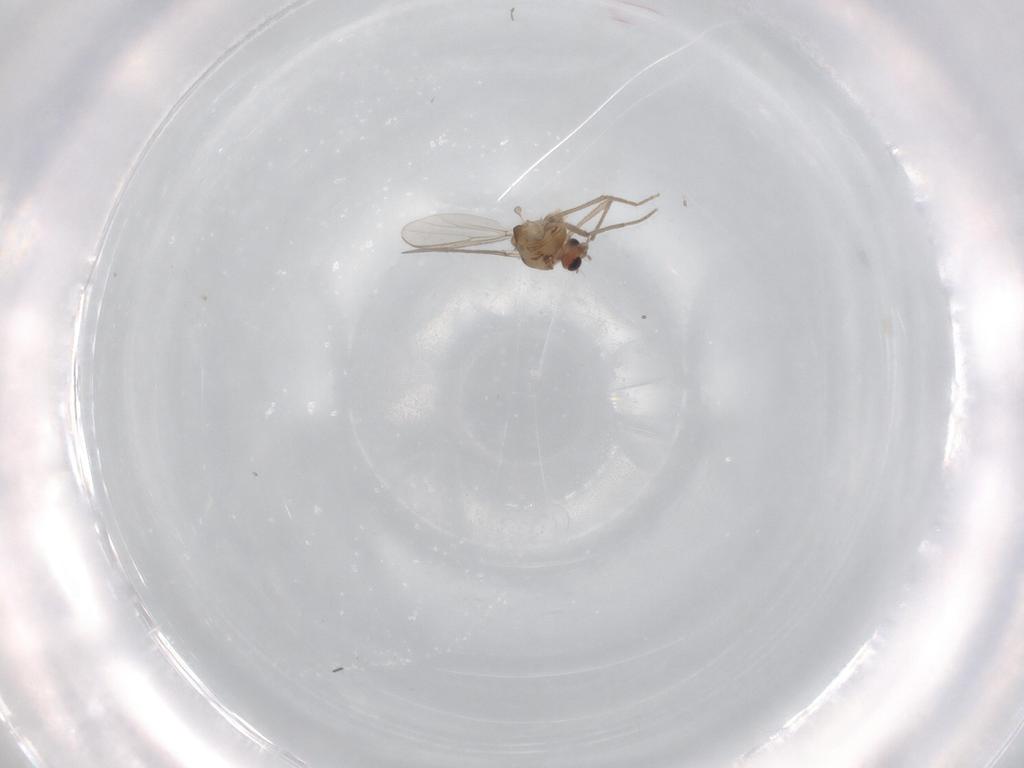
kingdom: Animalia
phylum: Arthropoda
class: Insecta
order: Diptera
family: Chironomidae
